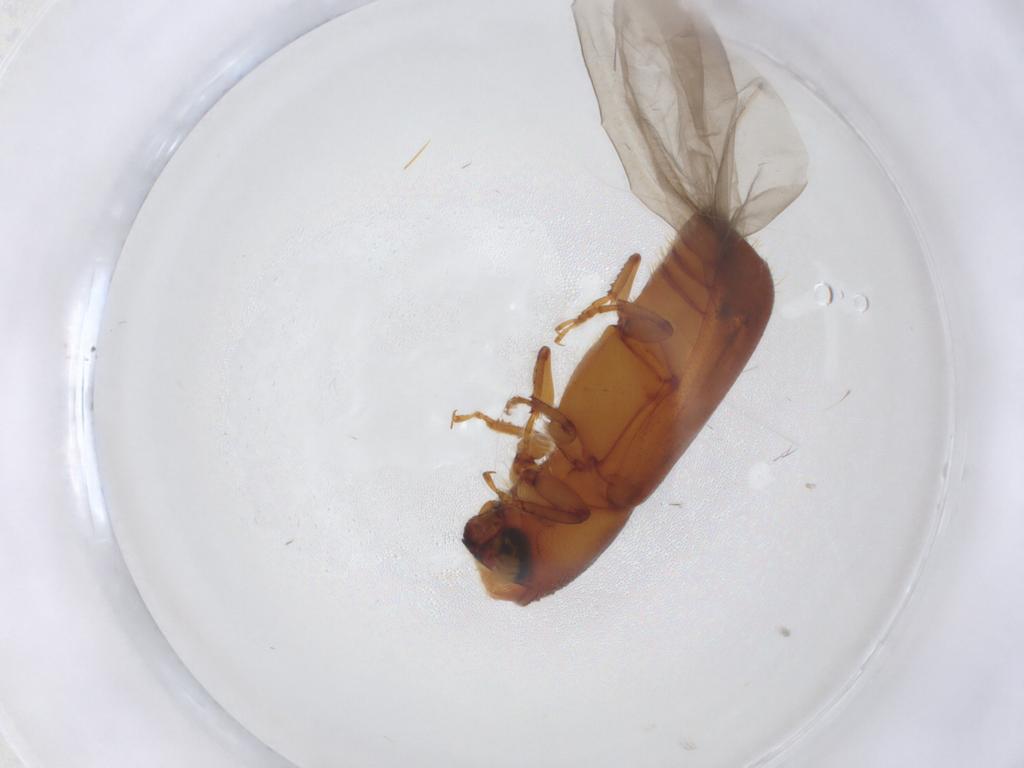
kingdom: Animalia
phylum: Arthropoda
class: Insecta
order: Coleoptera
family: Curculionidae
